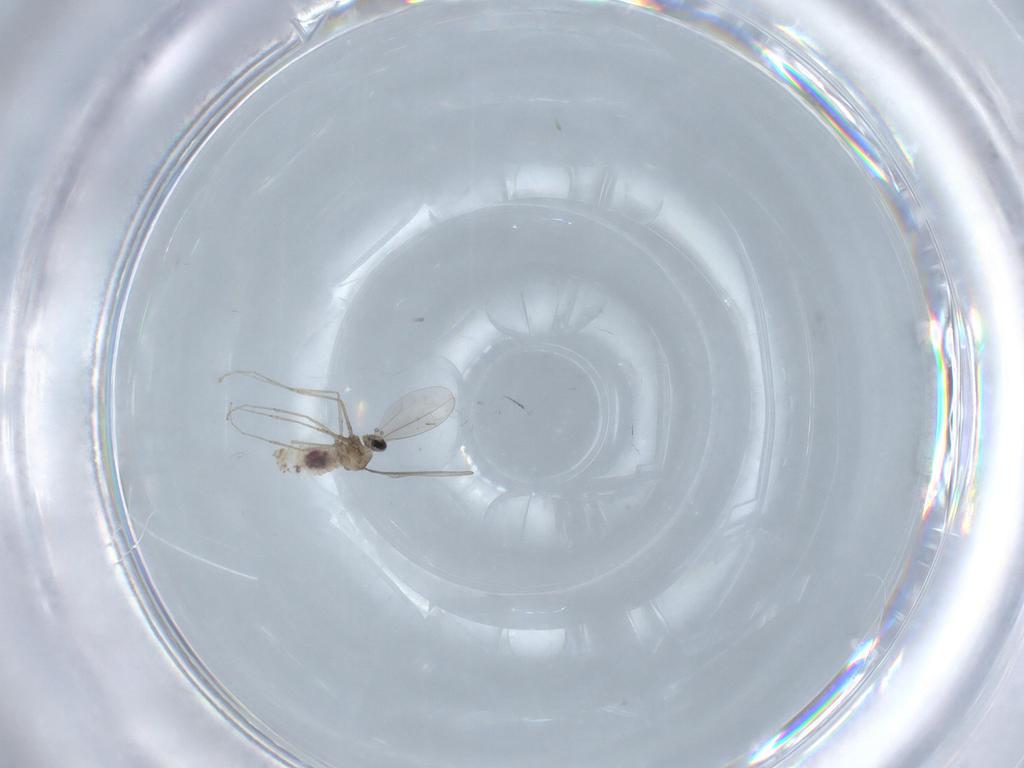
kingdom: Animalia
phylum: Arthropoda
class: Insecta
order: Diptera
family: Cecidomyiidae
